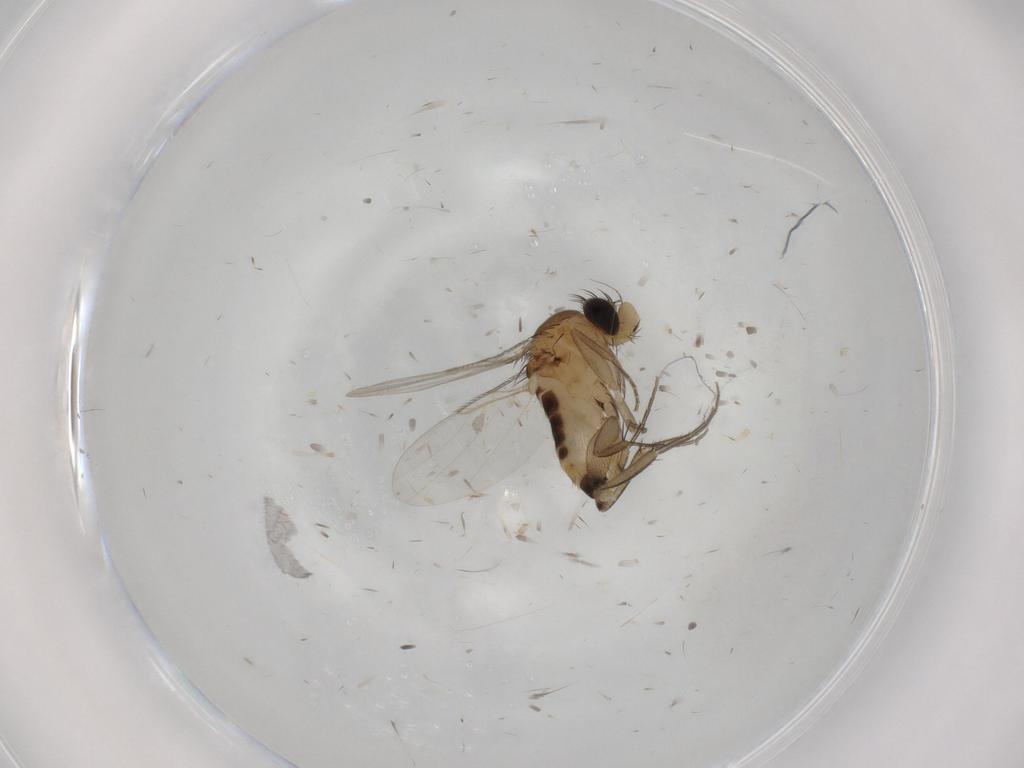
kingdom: Animalia
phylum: Arthropoda
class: Insecta
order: Diptera
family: Phoridae
